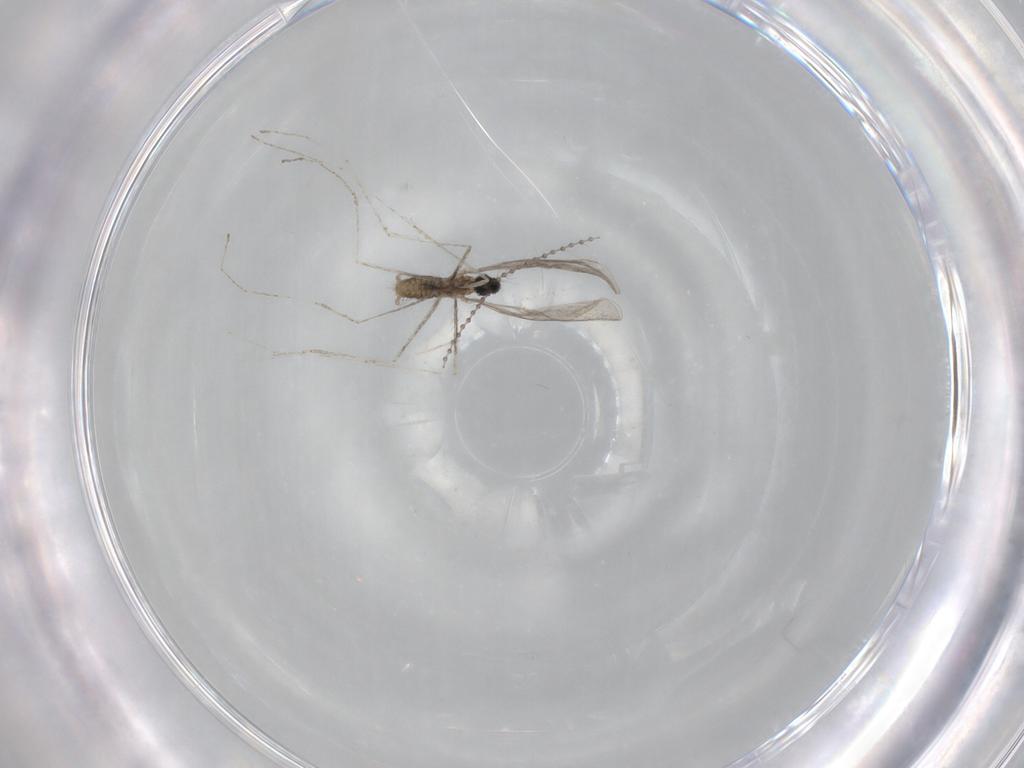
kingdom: Animalia
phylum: Arthropoda
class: Insecta
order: Diptera
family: Cecidomyiidae
